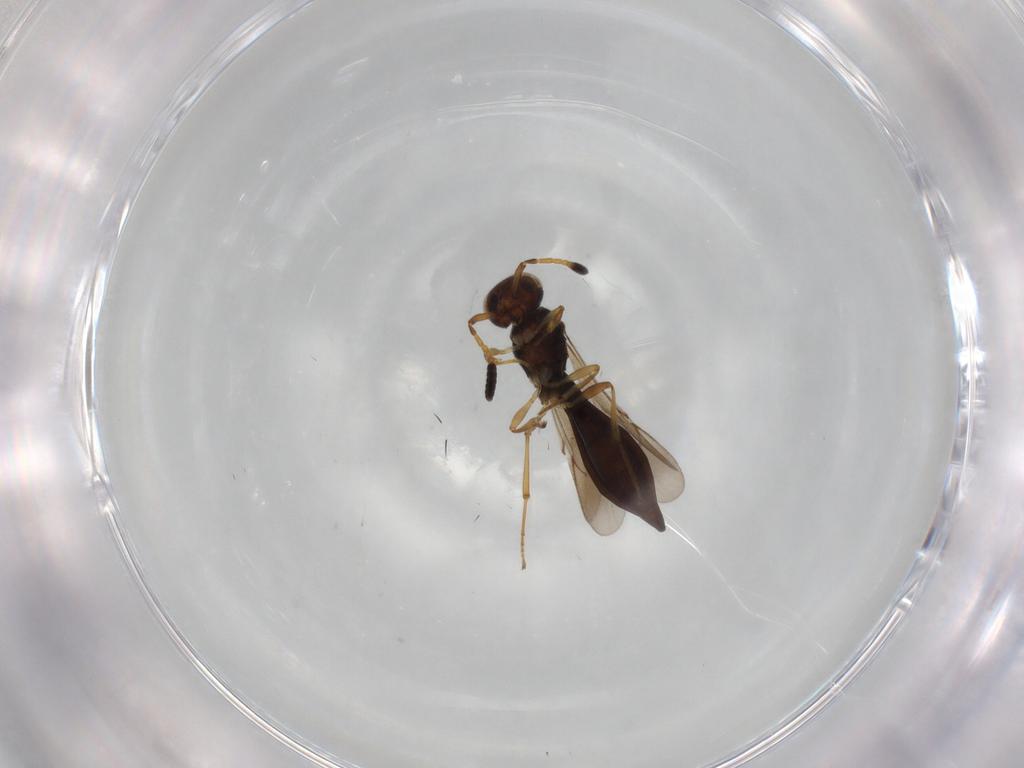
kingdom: Animalia
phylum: Arthropoda
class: Insecta
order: Hymenoptera
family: Scelionidae
